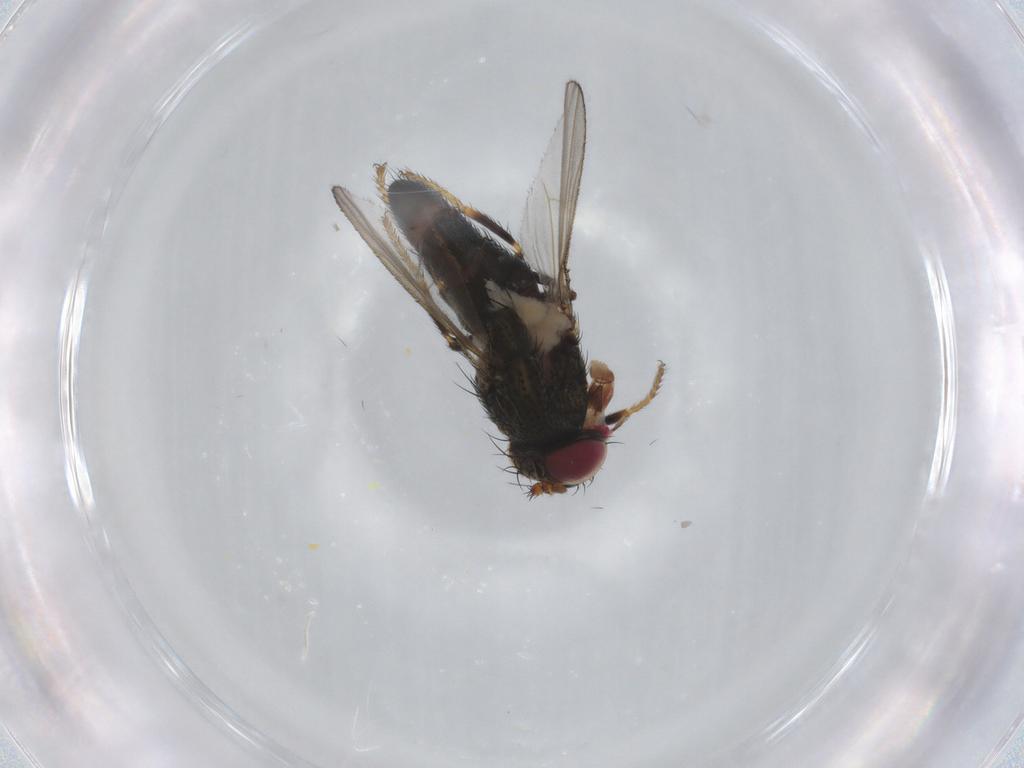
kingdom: Animalia
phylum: Arthropoda
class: Insecta
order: Diptera
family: Ephydridae
